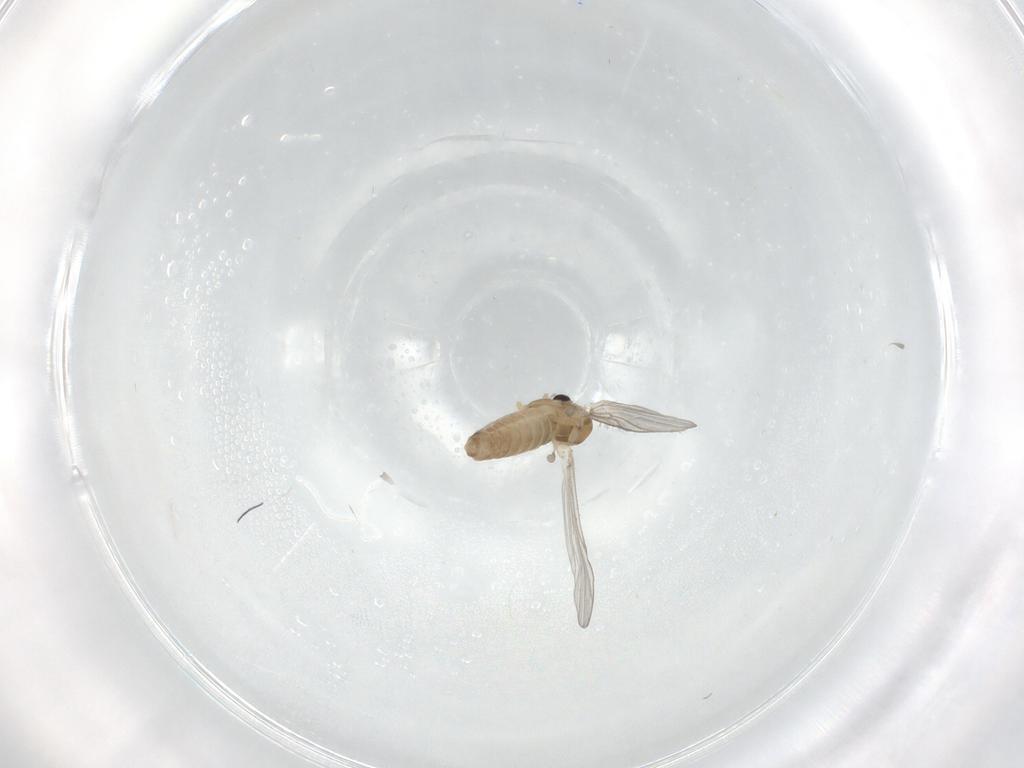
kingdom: Animalia
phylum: Arthropoda
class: Insecta
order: Diptera
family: Chironomidae
